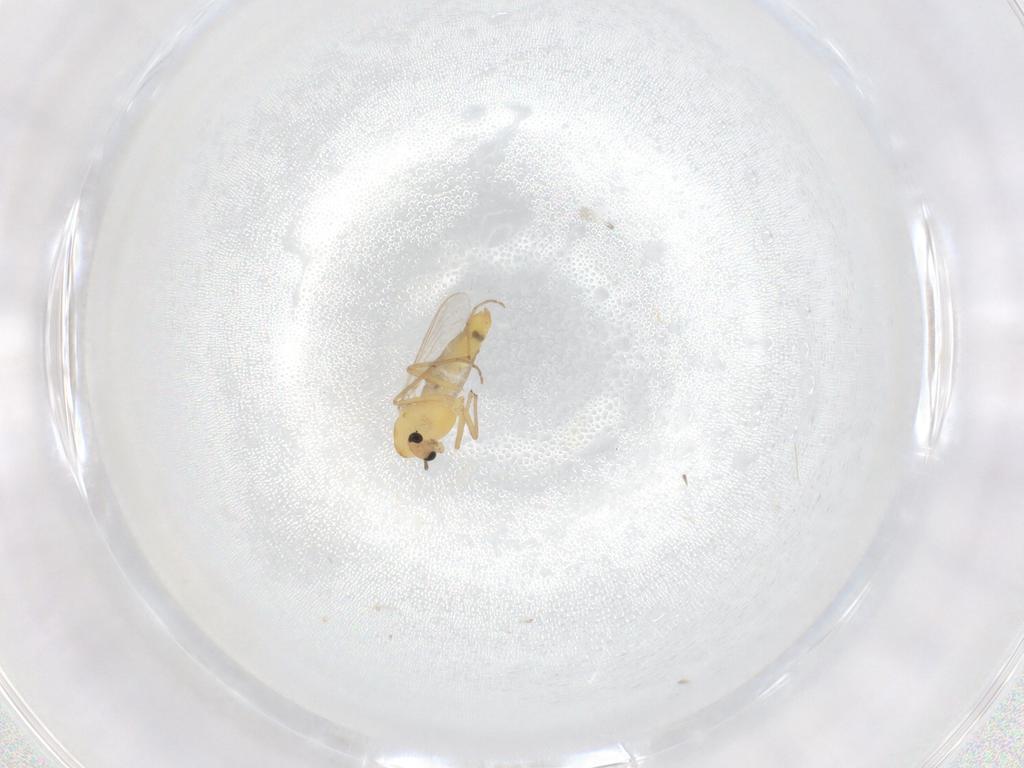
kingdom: Animalia
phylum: Arthropoda
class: Insecta
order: Diptera
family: Chironomidae
